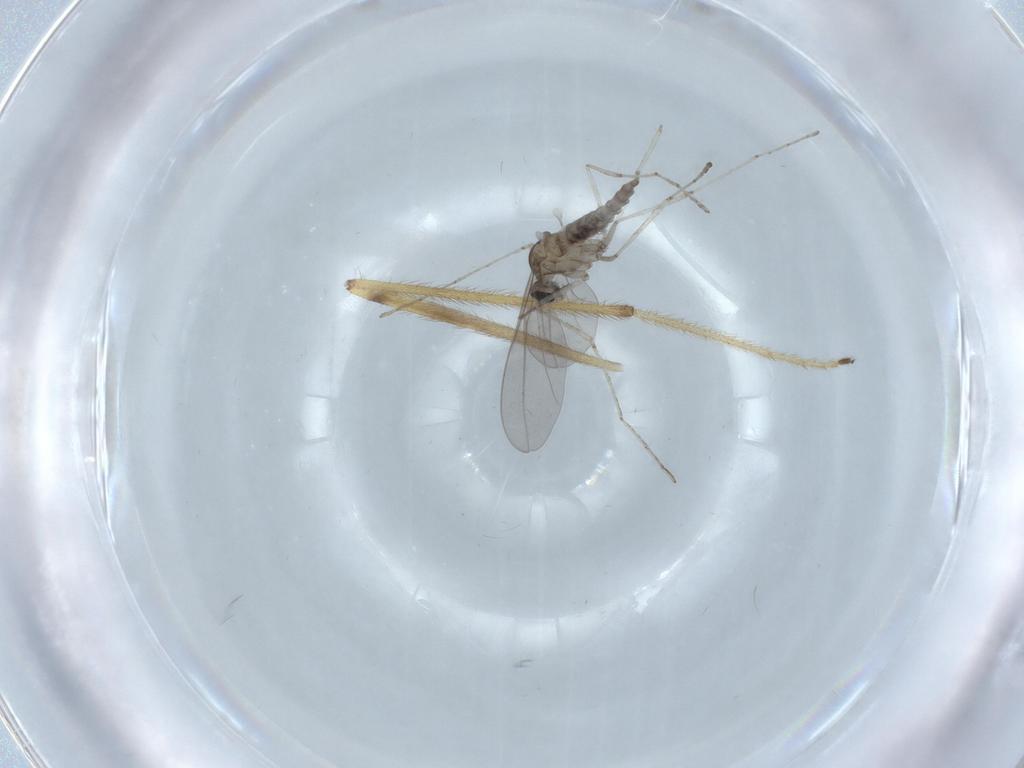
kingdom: Animalia
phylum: Arthropoda
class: Insecta
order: Diptera
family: Cecidomyiidae
